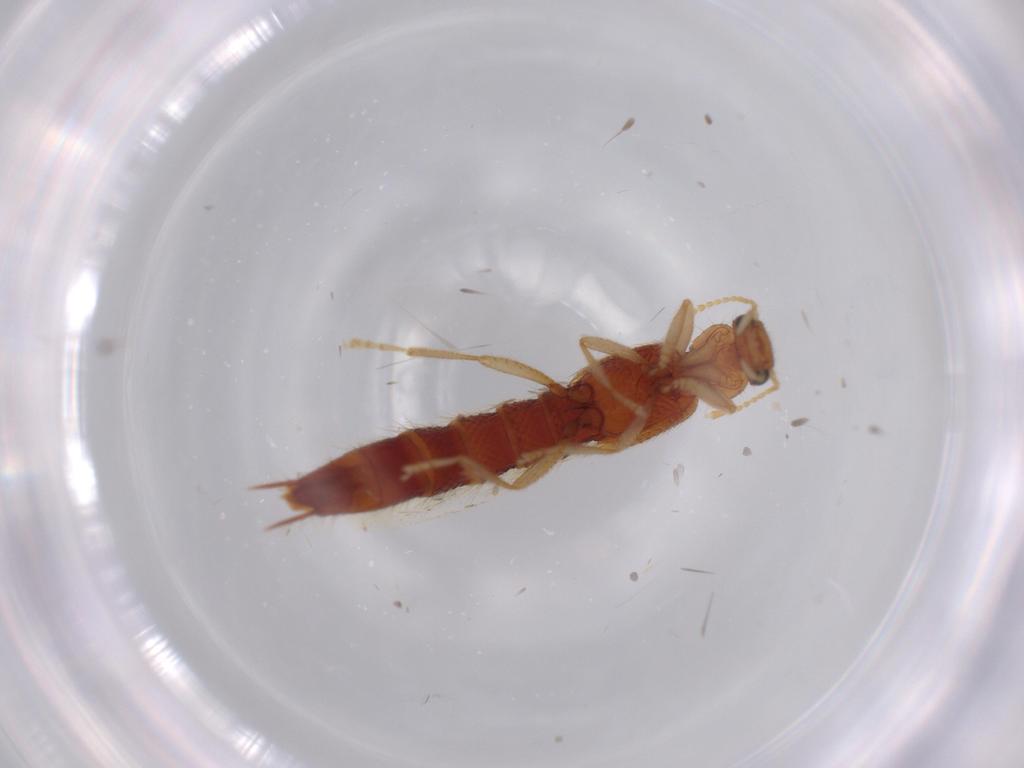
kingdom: Animalia
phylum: Arthropoda
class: Insecta
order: Coleoptera
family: Staphylinidae
